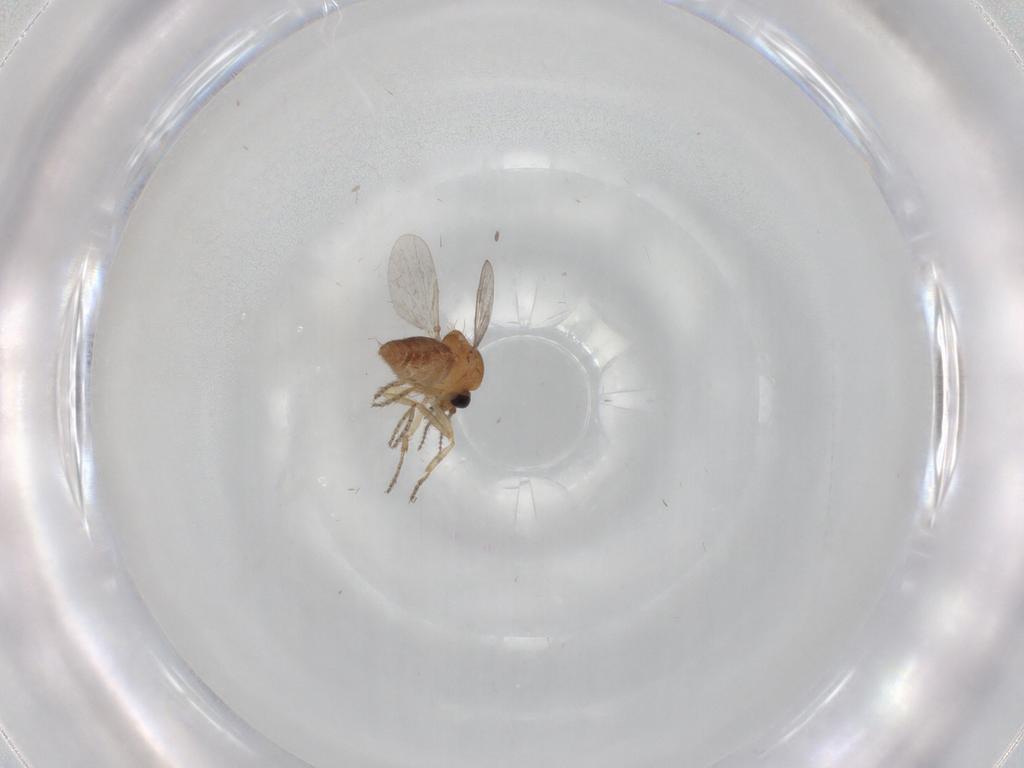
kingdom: Animalia
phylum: Arthropoda
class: Insecta
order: Diptera
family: Ceratopogonidae
